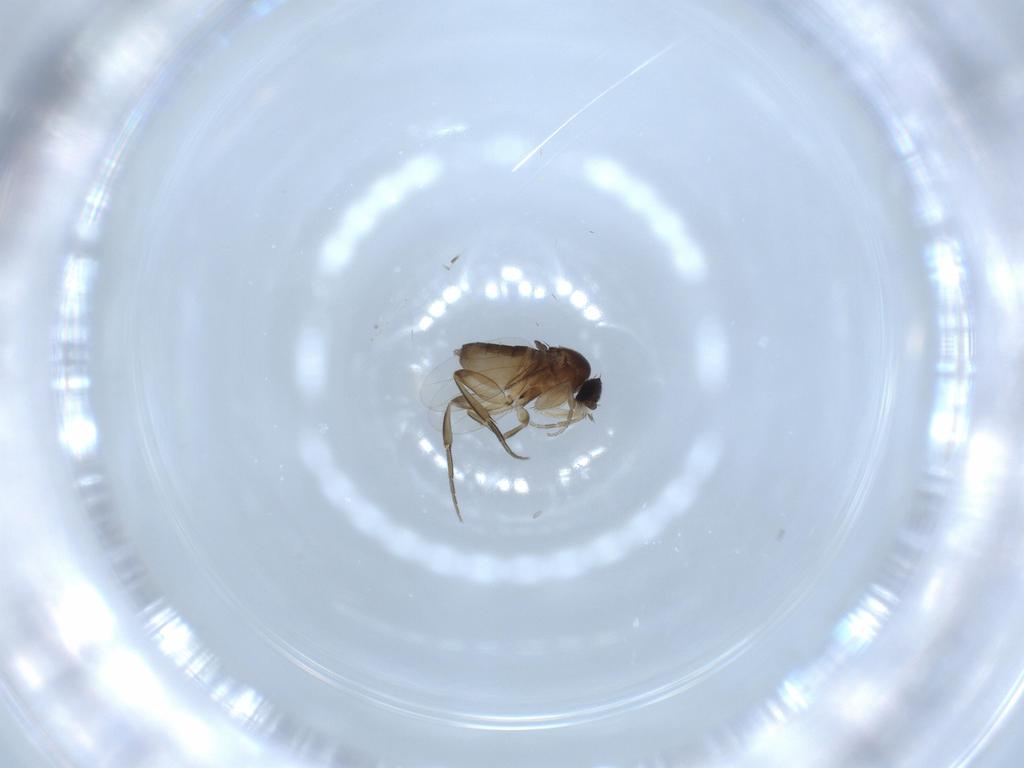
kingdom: Animalia
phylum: Arthropoda
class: Insecta
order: Diptera
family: Phoridae
